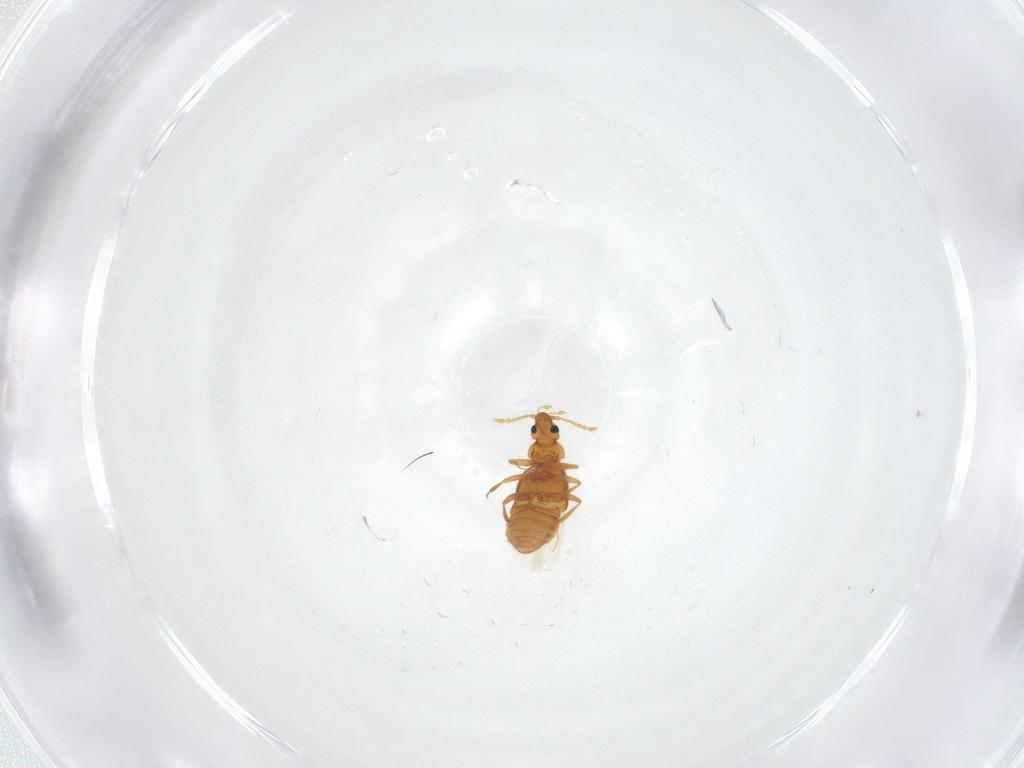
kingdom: Animalia
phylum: Arthropoda
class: Insecta
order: Coleoptera
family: Staphylinidae
